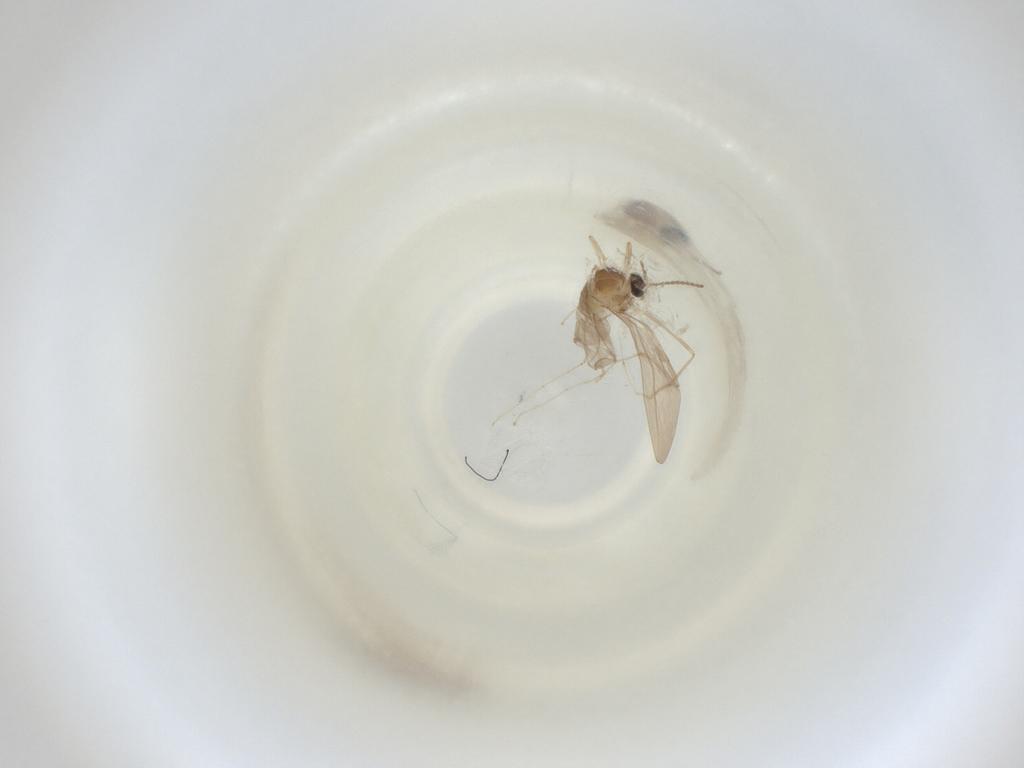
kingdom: Animalia
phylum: Arthropoda
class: Insecta
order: Diptera
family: Cecidomyiidae
